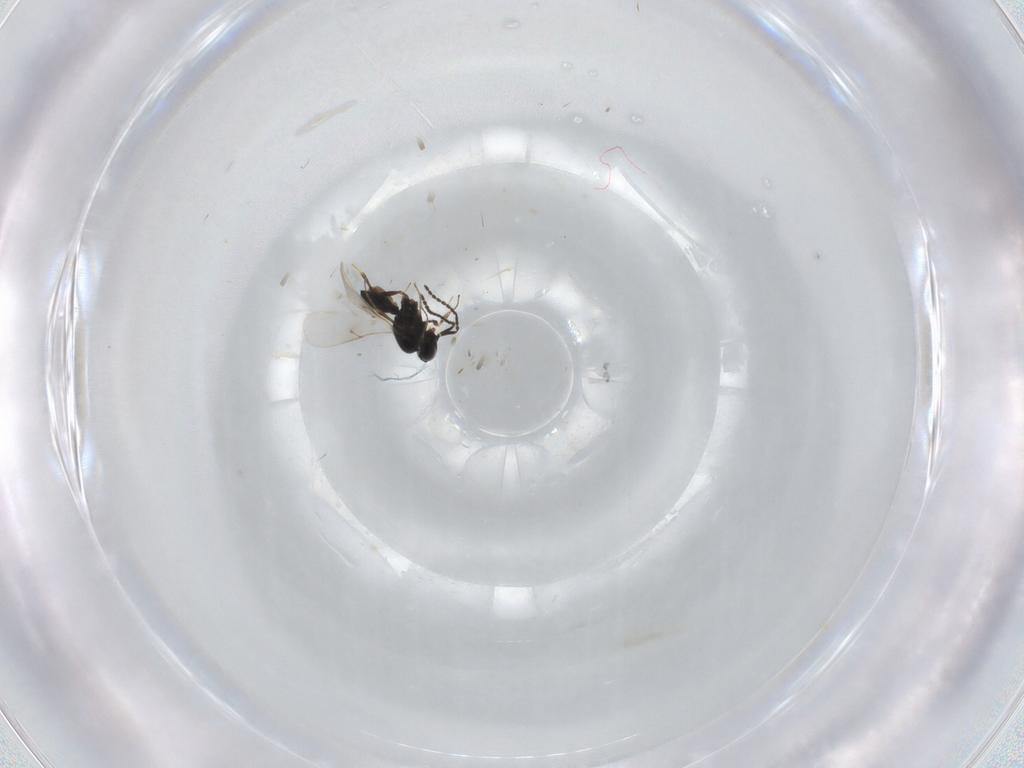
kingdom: Animalia
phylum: Arthropoda
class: Insecta
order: Hymenoptera
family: Scelionidae
